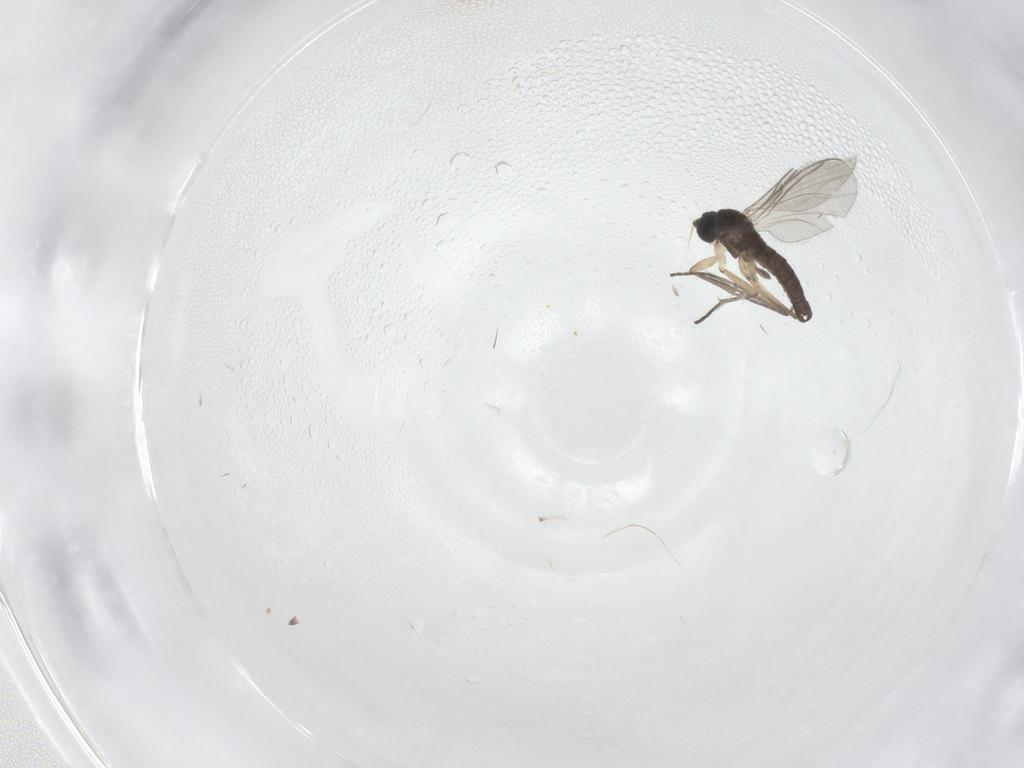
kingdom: Animalia
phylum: Arthropoda
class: Insecta
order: Diptera
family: Sciaridae
